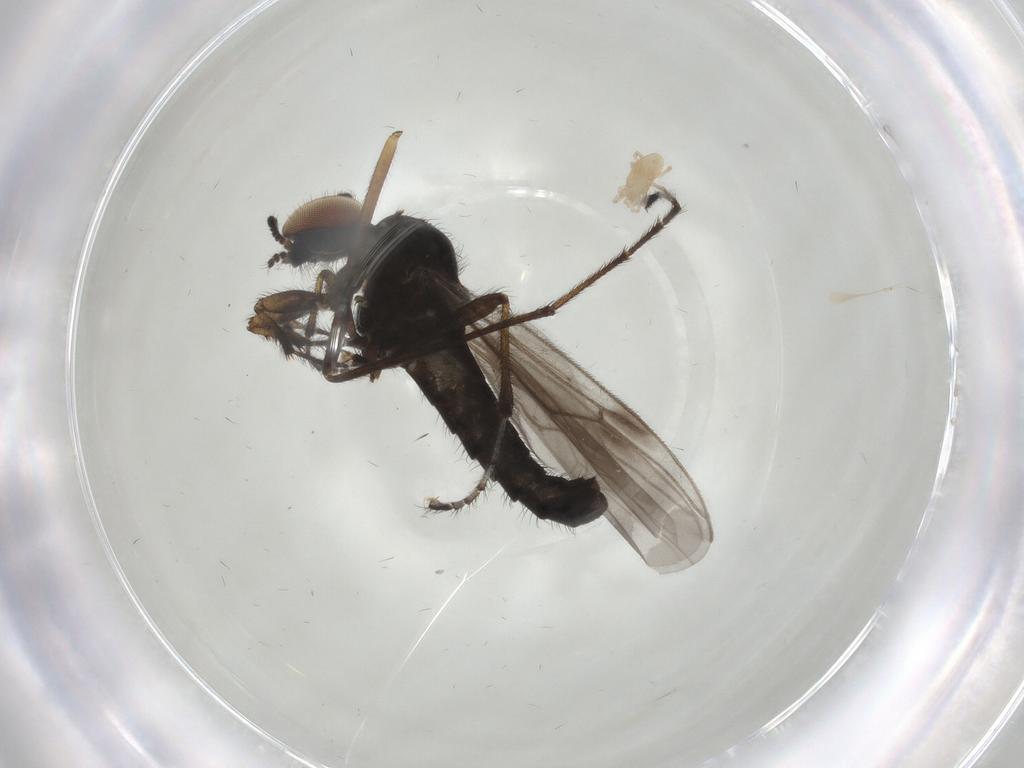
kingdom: Animalia
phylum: Arthropoda
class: Insecta
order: Diptera
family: Bibionidae
